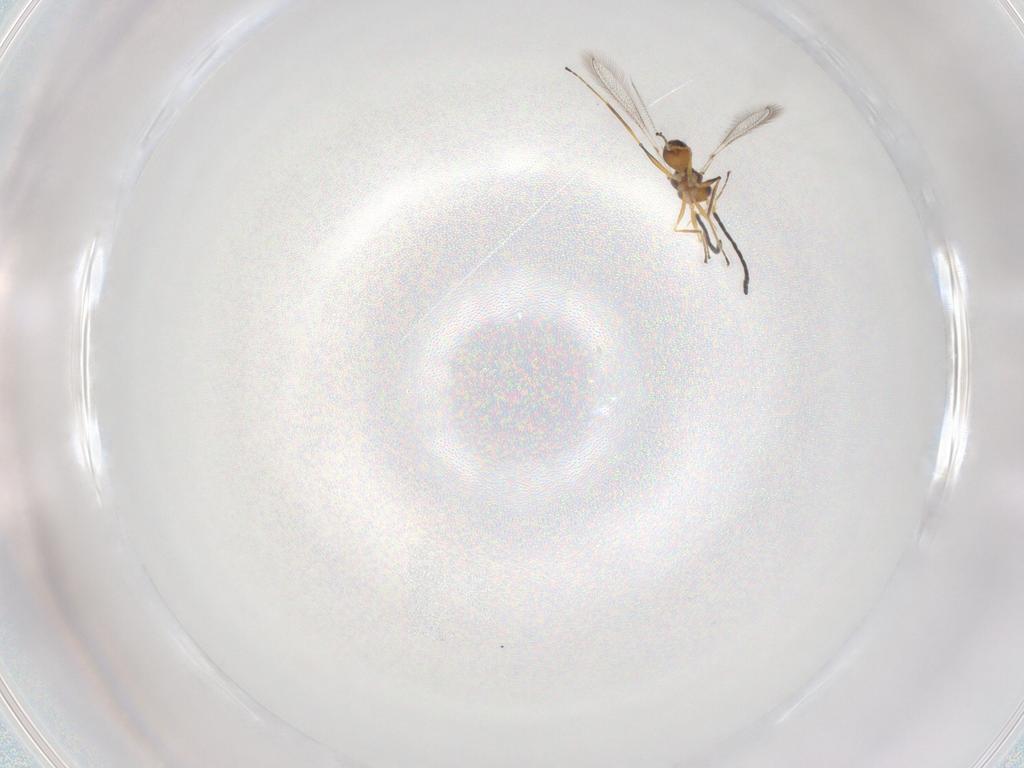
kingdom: Animalia
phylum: Arthropoda
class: Insecta
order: Hymenoptera
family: Mymaridae
